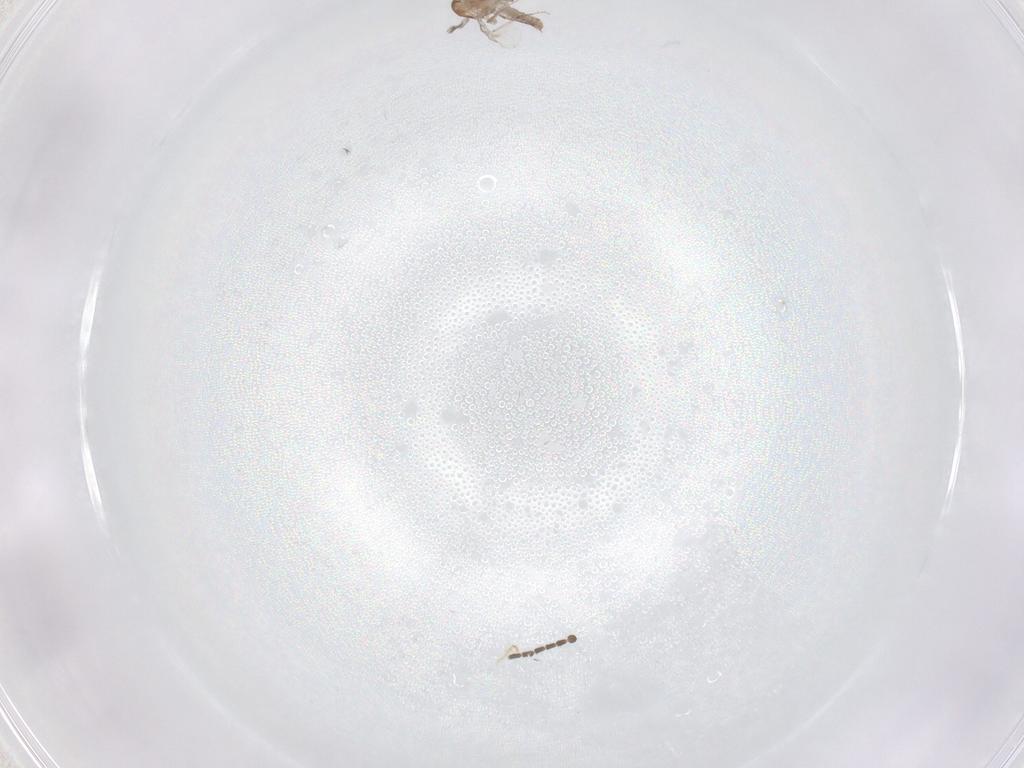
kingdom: Animalia
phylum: Arthropoda
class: Insecta
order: Diptera
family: Ceratopogonidae
